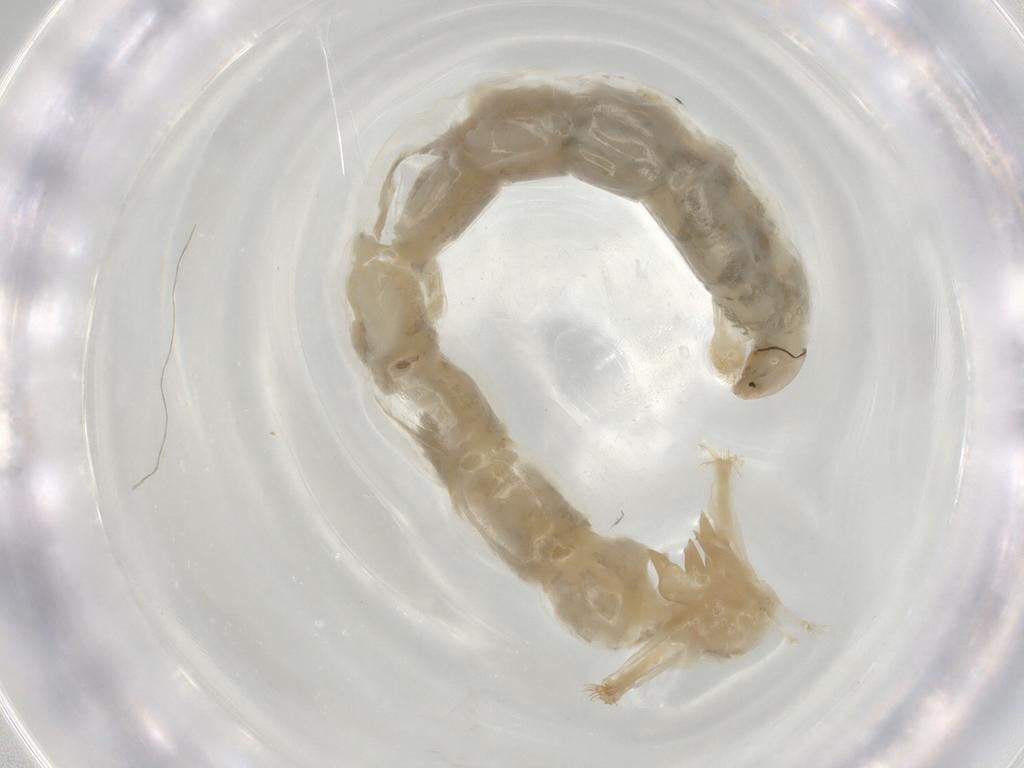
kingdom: Animalia
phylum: Arthropoda
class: Insecta
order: Diptera
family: Chironomidae
